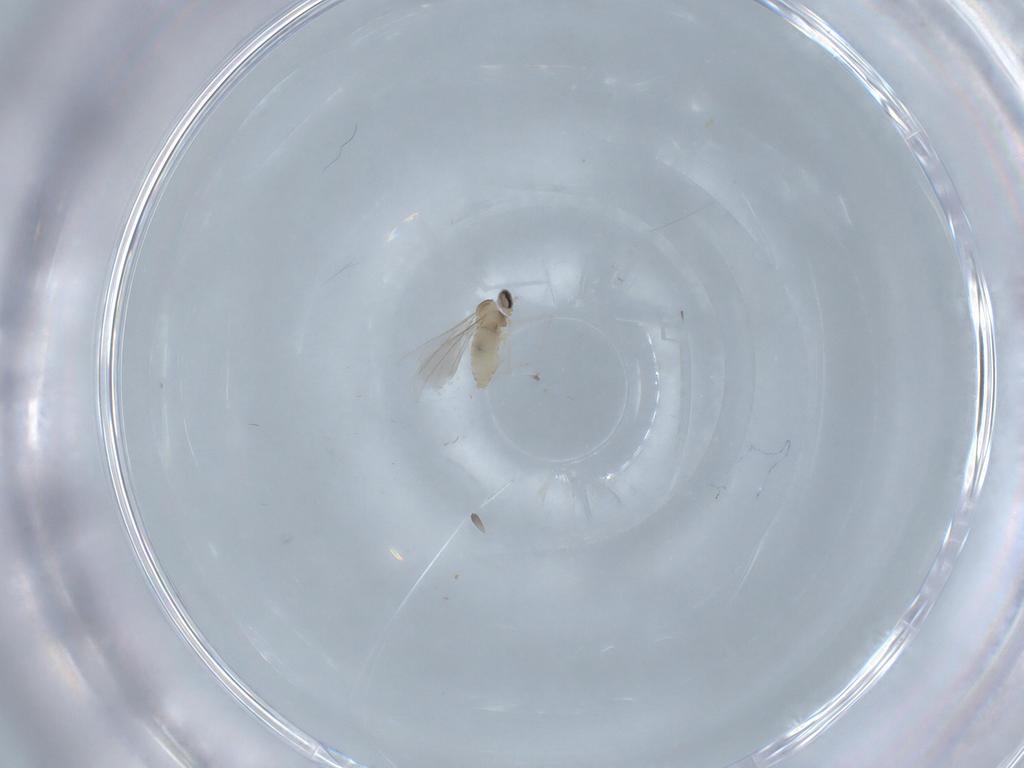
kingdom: Animalia
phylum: Arthropoda
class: Insecta
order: Diptera
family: Cecidomyiidae
